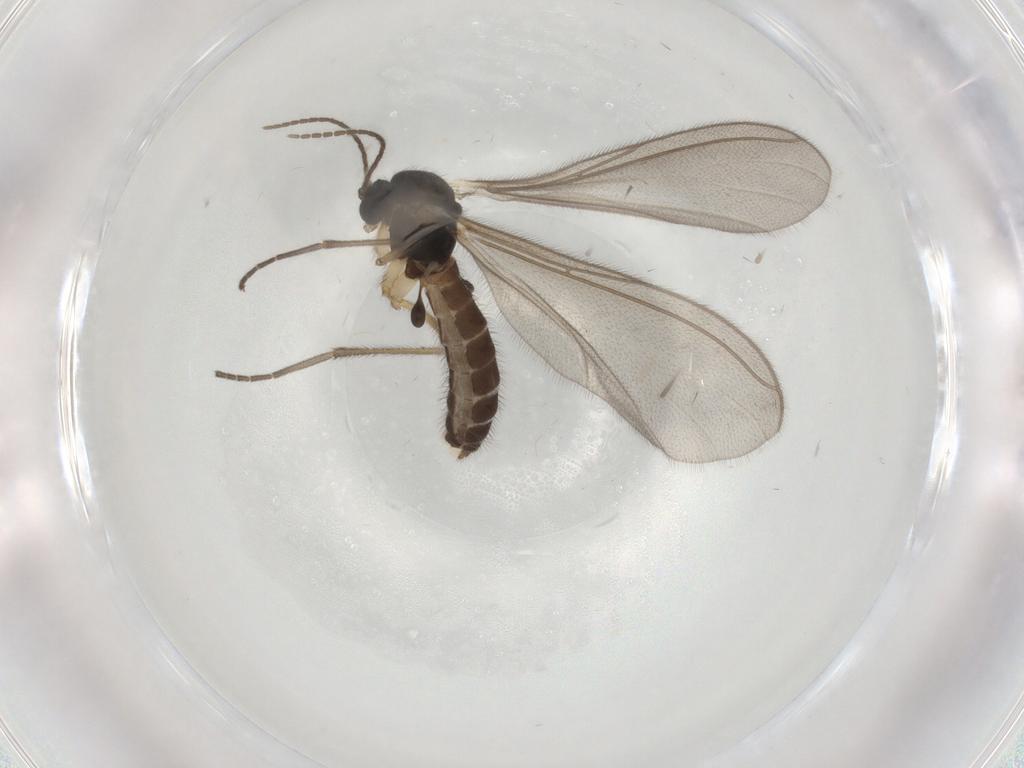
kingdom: Animalia
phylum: Arthropoda
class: Insecta
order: Diptera
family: Mycetophilidae
